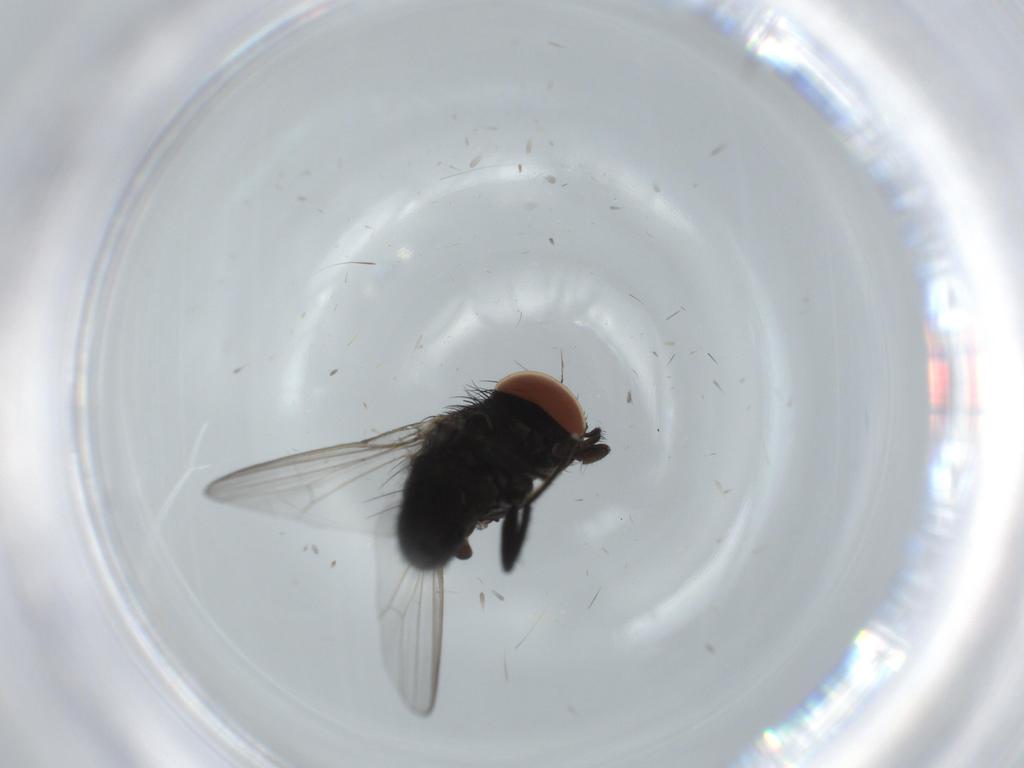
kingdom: Animalia
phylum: Arthropoda
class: Insecta
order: Diptera
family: Milichiidae
